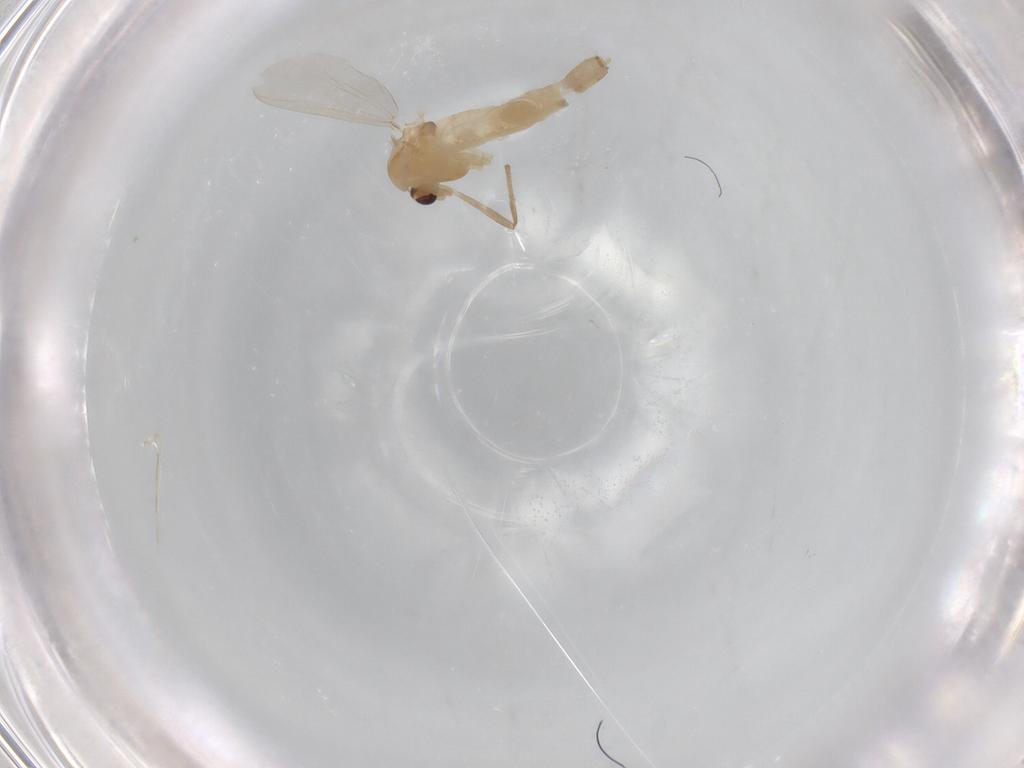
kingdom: Animalia
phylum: Arthropoda
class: Insecta
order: Diptera
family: Chironomidae
